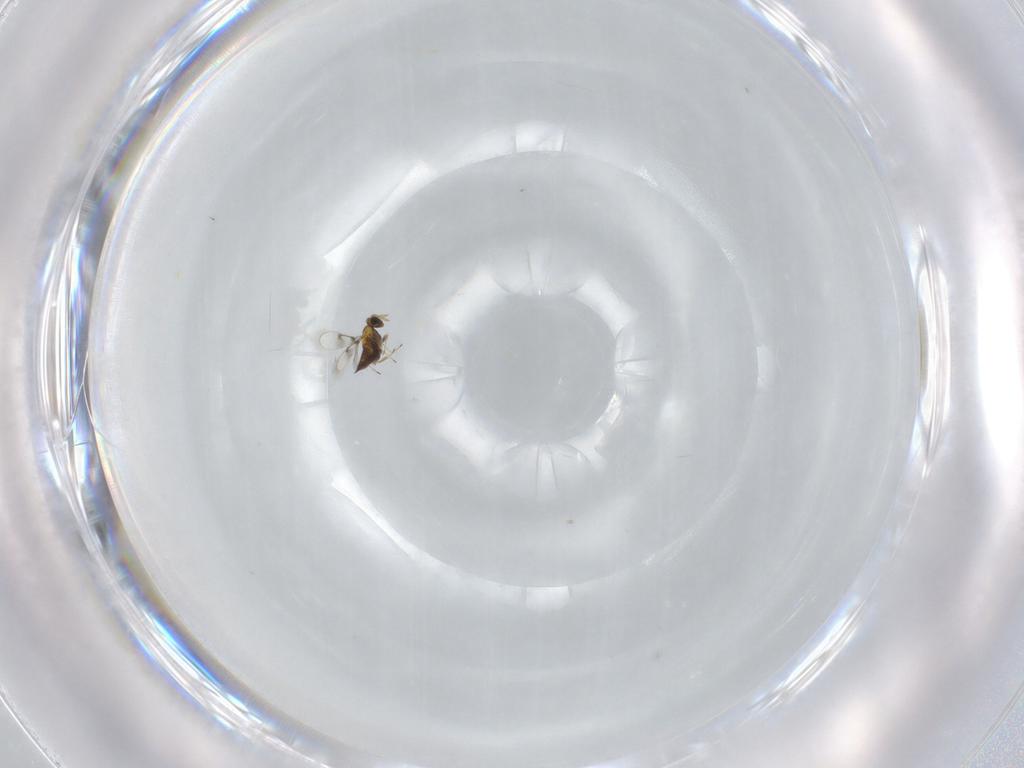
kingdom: Animalia
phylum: Arthropoda
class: Insecta
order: Hymenoptera
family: Trichogrammatidae
